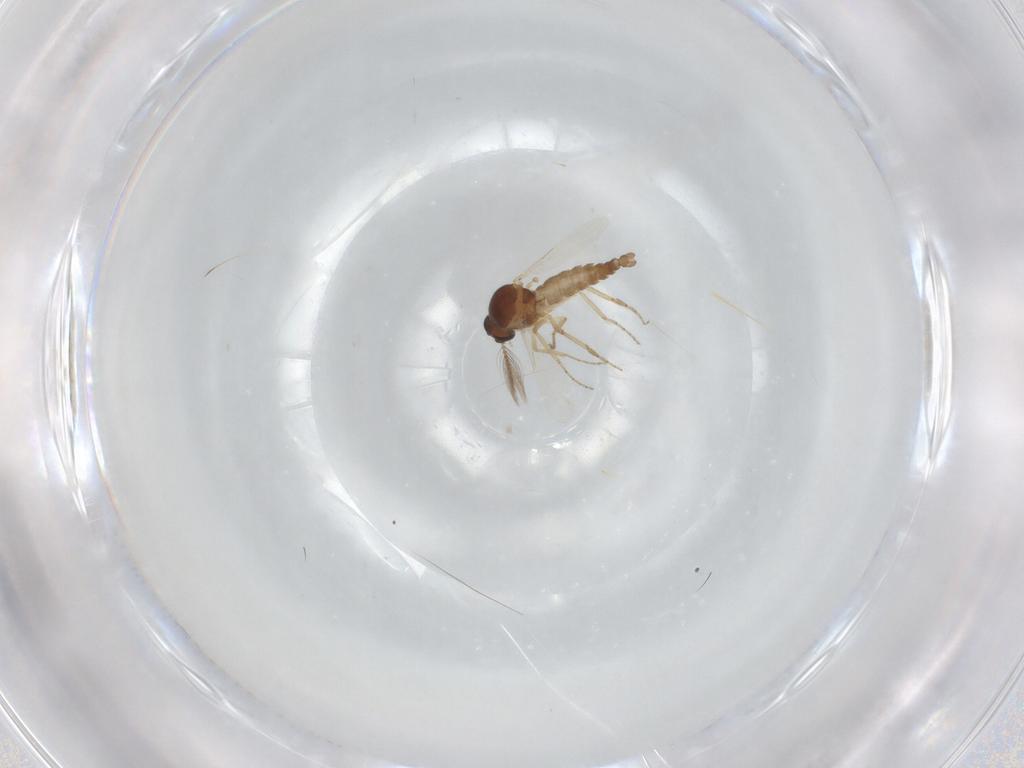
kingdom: Animalia
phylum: Arthropoda
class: Insecta
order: Diptera
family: Ceratopogonidae
